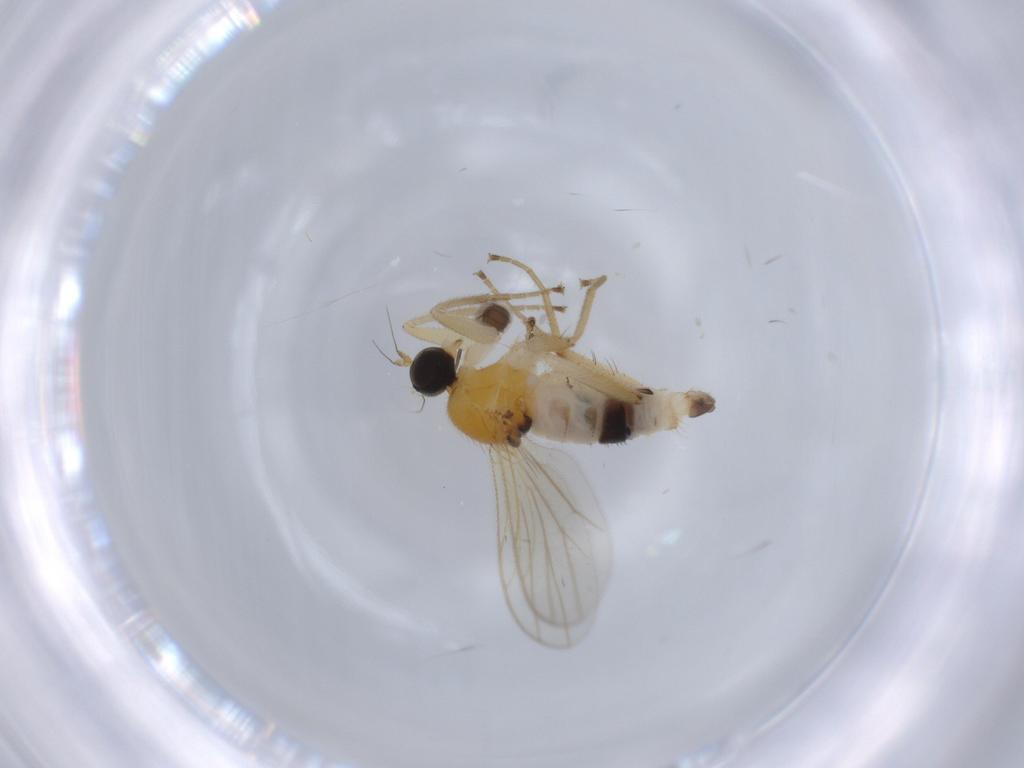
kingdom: Animalia
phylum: Arthropoda
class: Insecta
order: Diptera
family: Hybotidae
